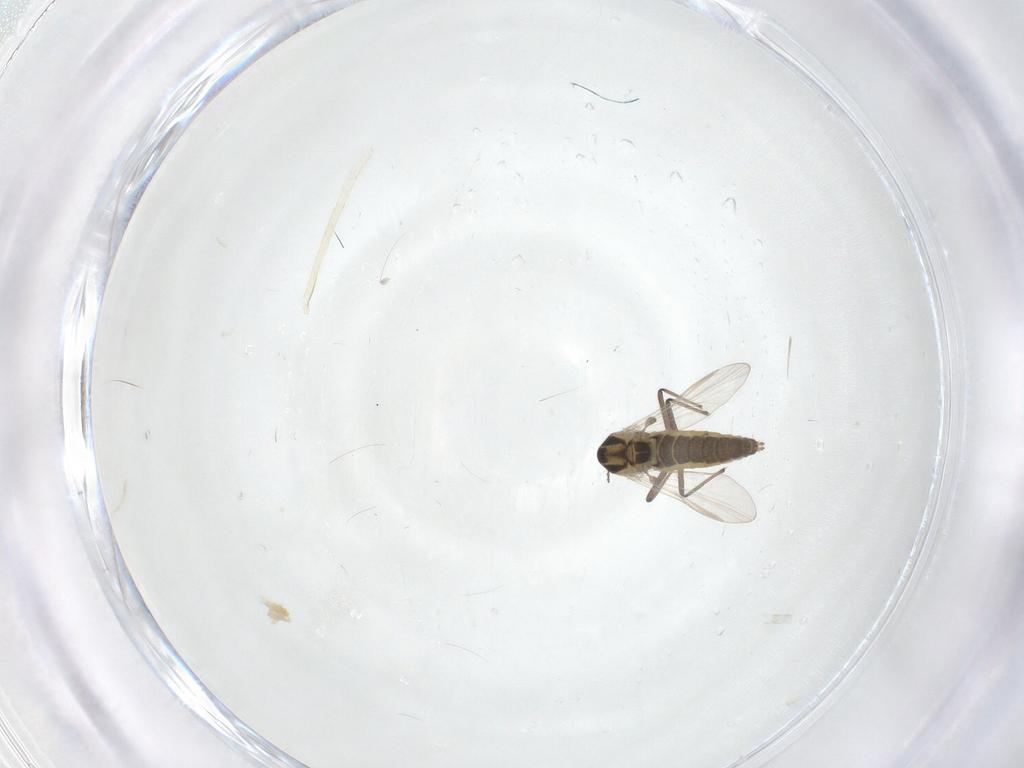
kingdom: Animalia
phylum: Arthropoda
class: Insecta
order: Diptera
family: Chironomidae
